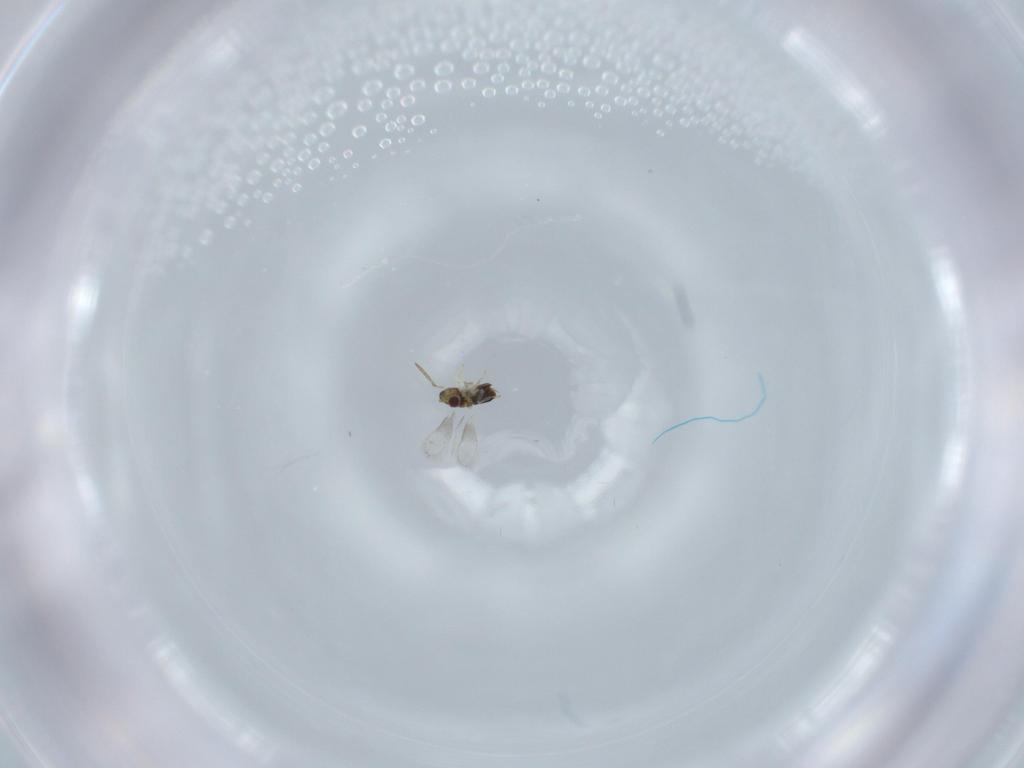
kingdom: Animalia
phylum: Arthropoda
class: Insecta
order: Hymenoptera
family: Aphelinidae
